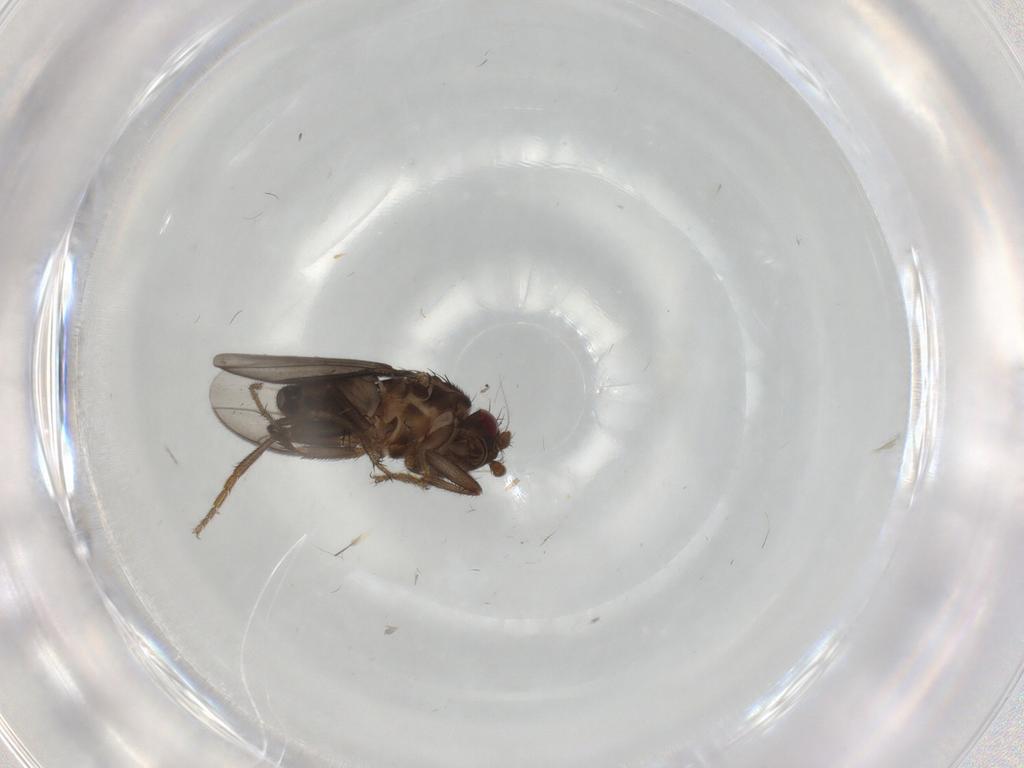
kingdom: Animalia
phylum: Arthropoda
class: Insecta
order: Diptera
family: Sphaeroceridae
